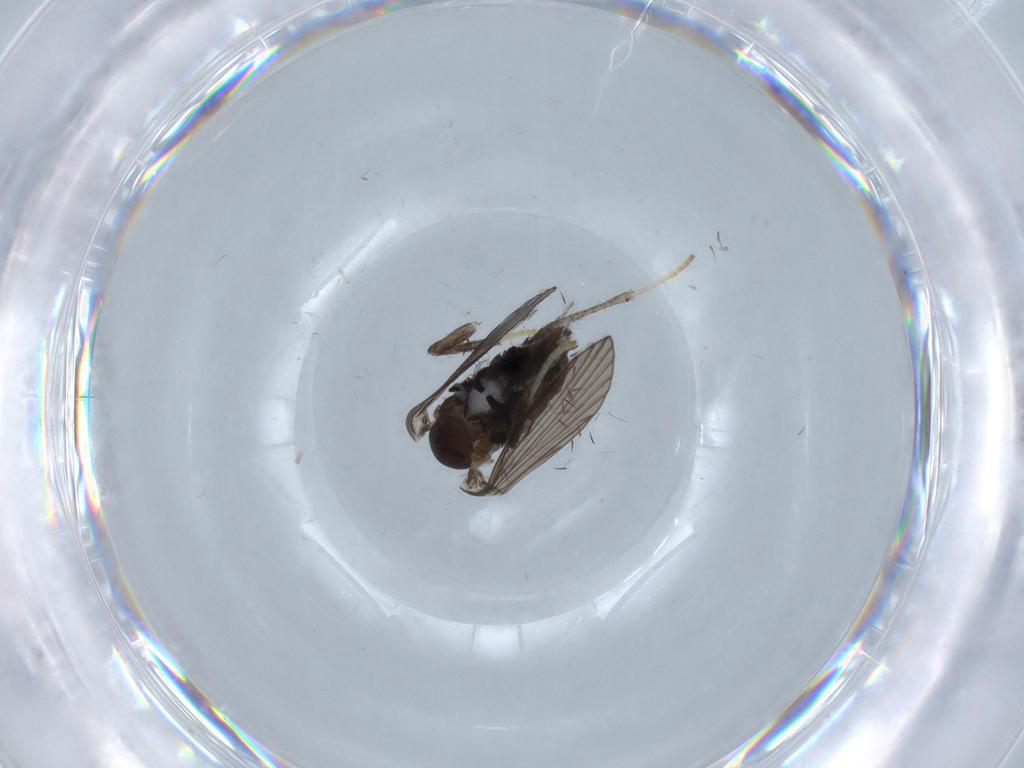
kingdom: Animalia
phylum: Arthropoda
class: Insecta
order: Diptera
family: Psychodidae
